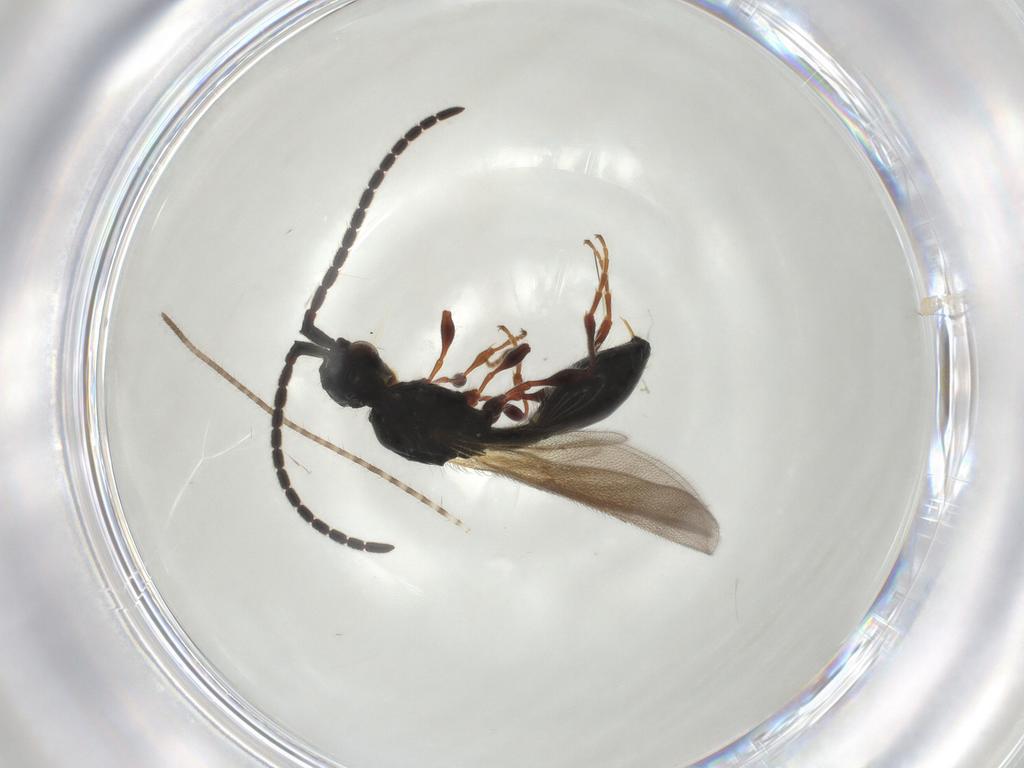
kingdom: Animalia
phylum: Arthropoda
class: Insecta
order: Hymenoptera
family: Diapriidae
